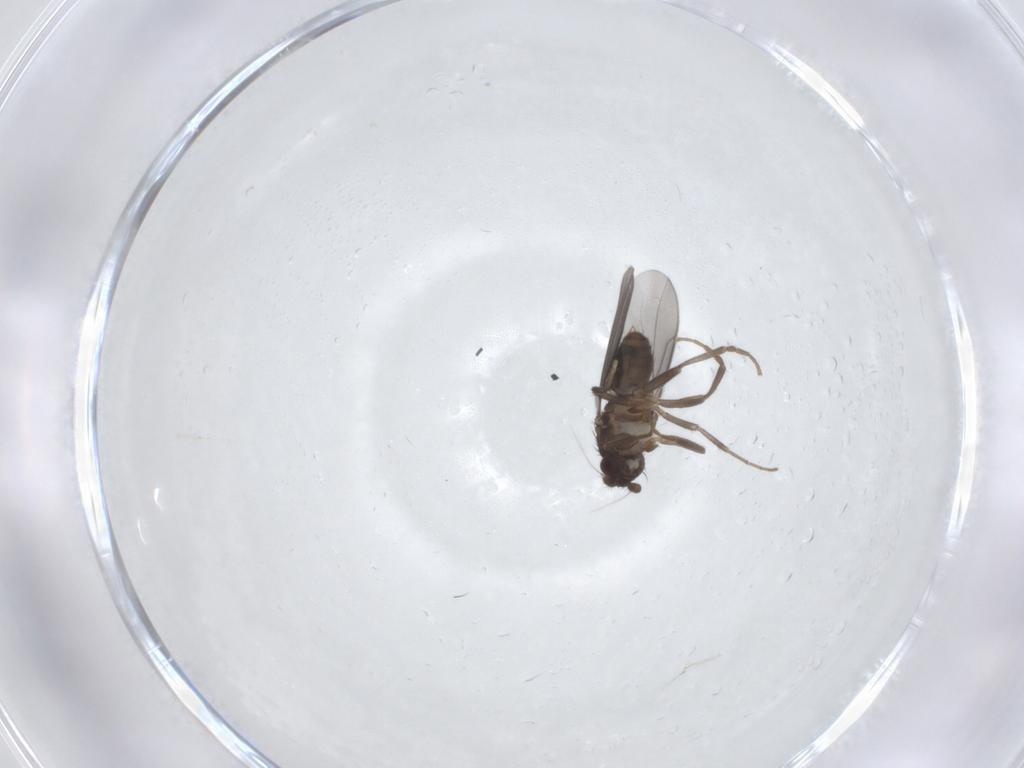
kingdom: Animalia
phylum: Arthropoda
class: Insecta
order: Diptera
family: Sphaeroceridae
